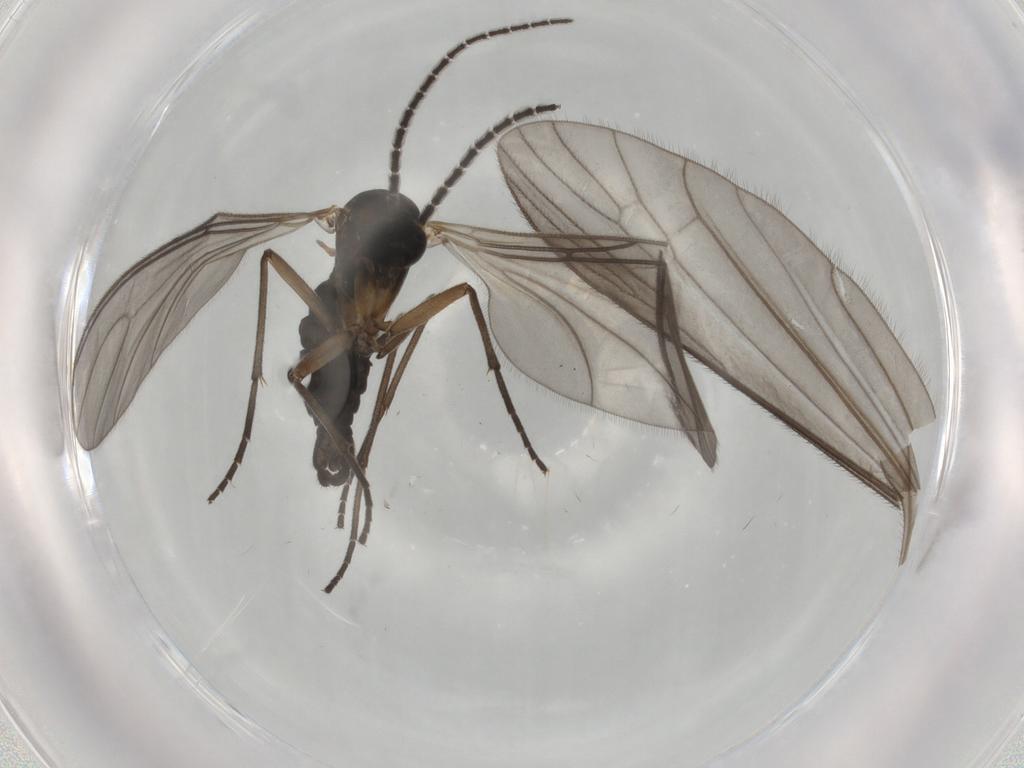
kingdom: Animalia
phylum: Arthropoda
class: Insecta
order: Diptera
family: Sciaridae
